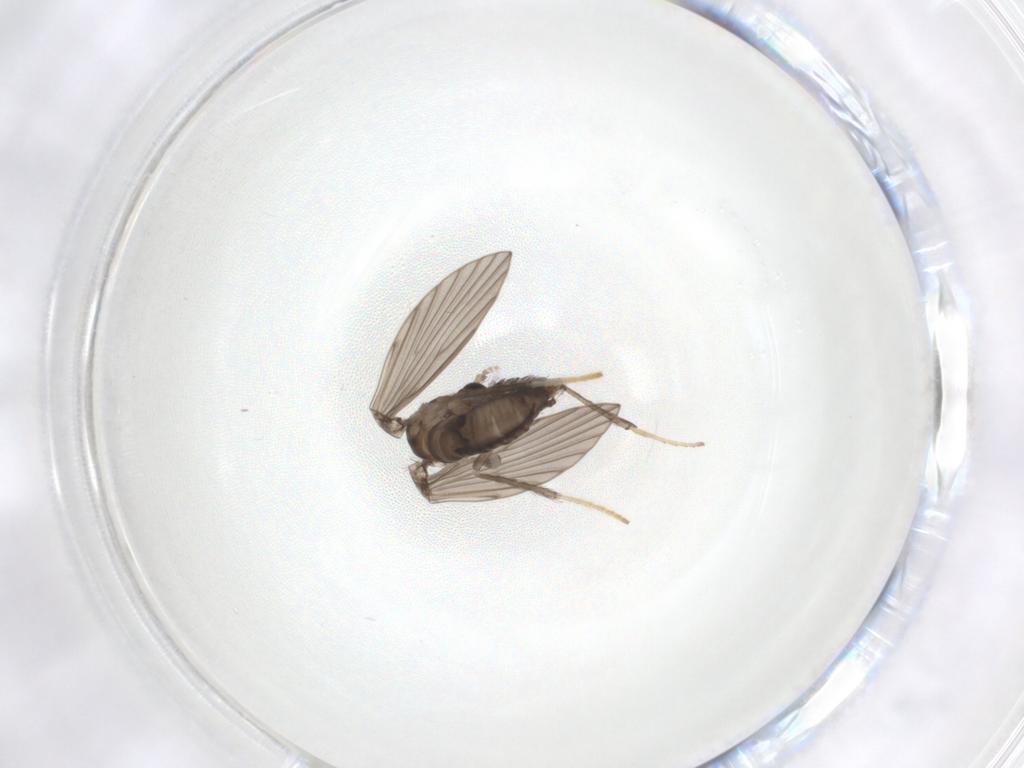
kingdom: Animalia
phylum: Arthropoda
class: Insecta
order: Diptera
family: Psychodidae
